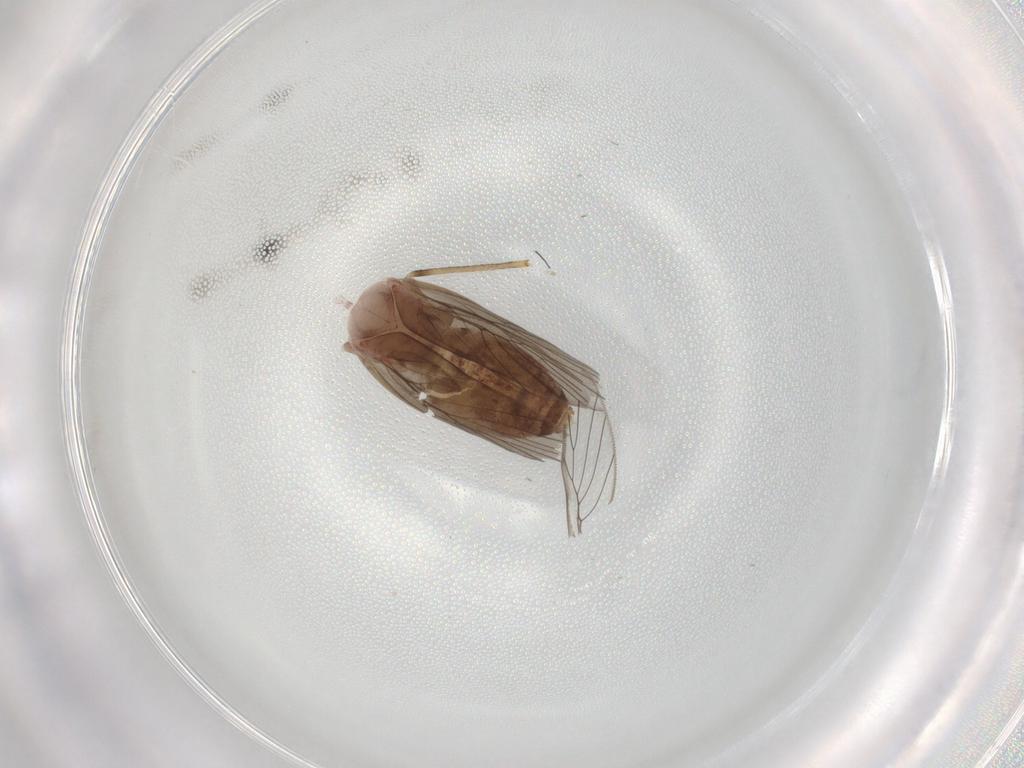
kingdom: Animalia
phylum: Arthropoda
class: Insecta
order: Psocodea
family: Lepidopsocidae
